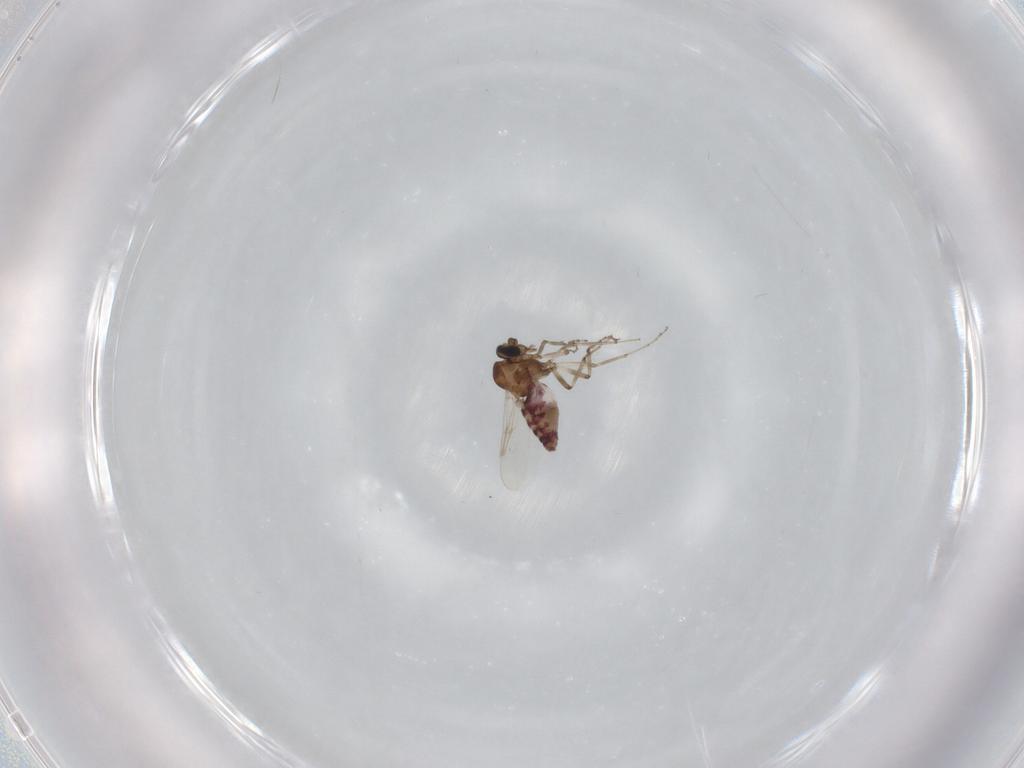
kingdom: Animalia
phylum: Arthropoda
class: Insecta
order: Diptera
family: Ceratopogonidae
